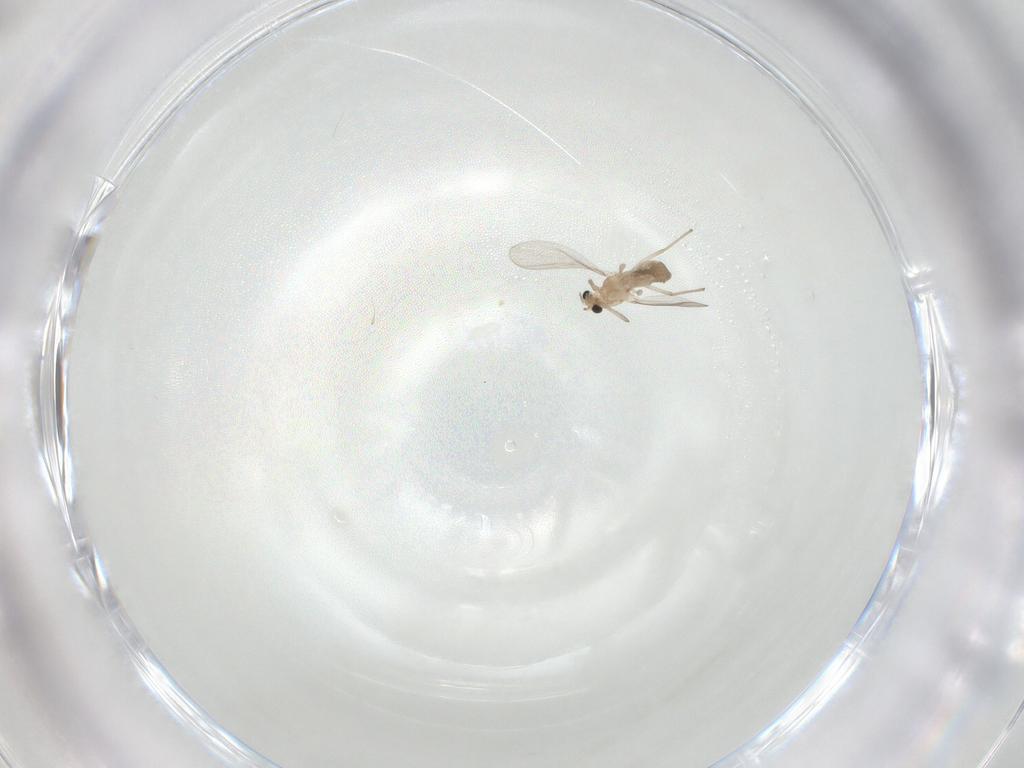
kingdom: Animalia
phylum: Arthropoda
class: Insecta
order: Diptera
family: Chironomidae
